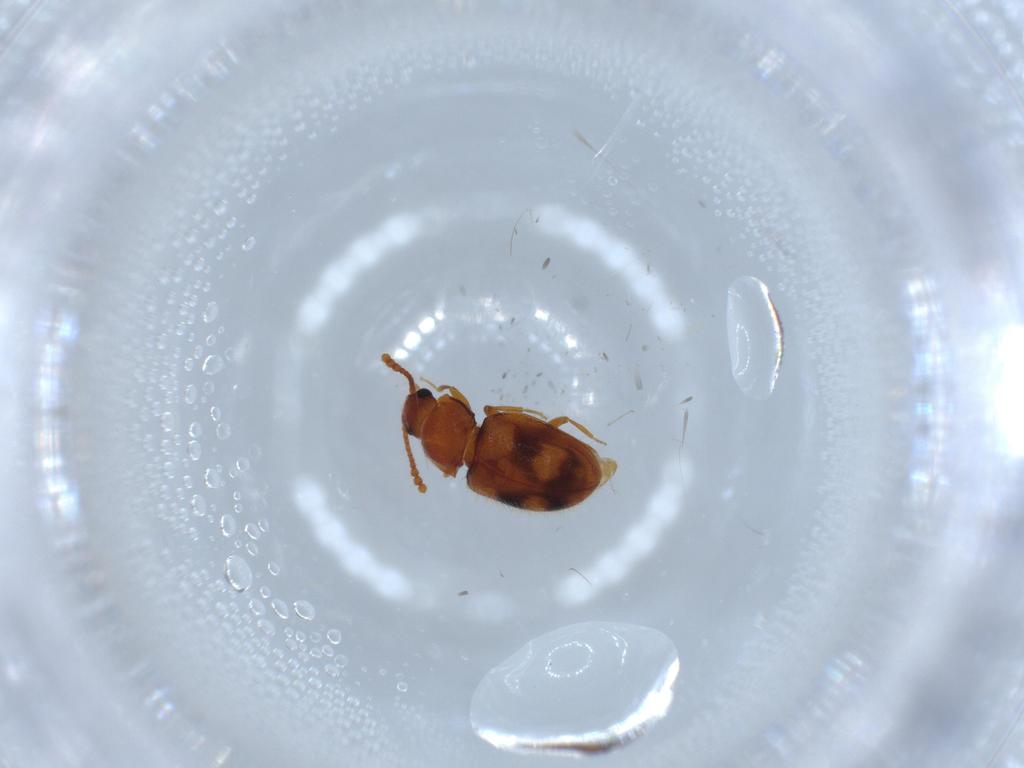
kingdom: Animalia
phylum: Arthropoda
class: Insecta
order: Coleoptera
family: Erotylidae
